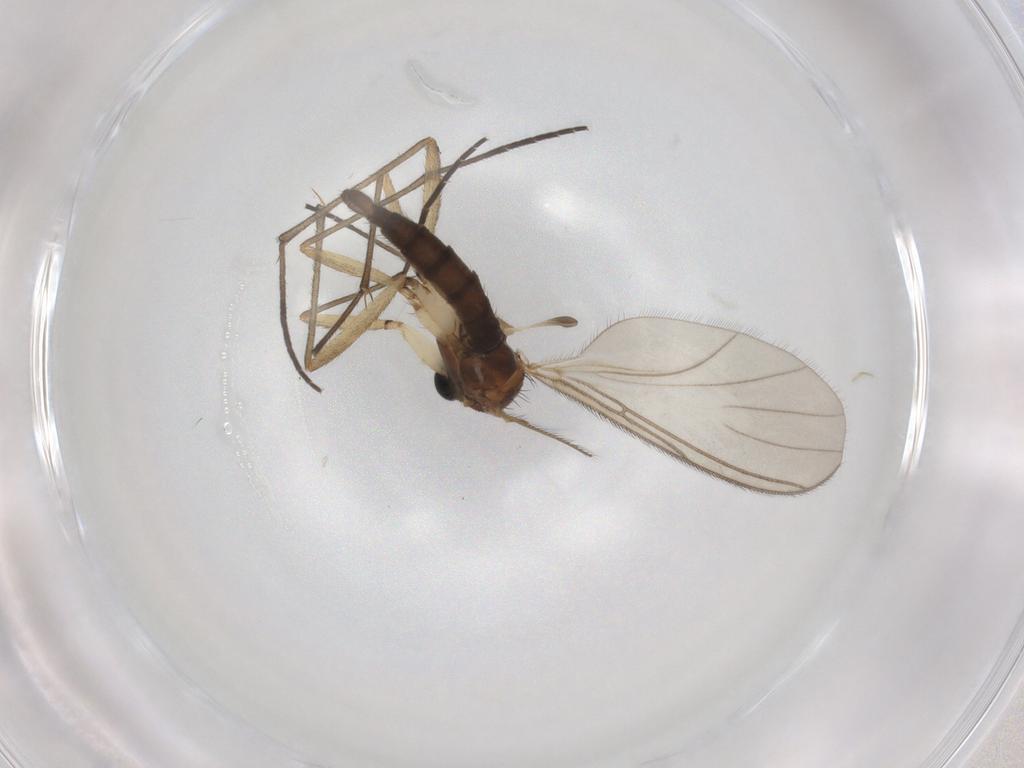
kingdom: Animalia
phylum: Arthropoda
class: Insecta
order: Diptera
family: Sciaridae
